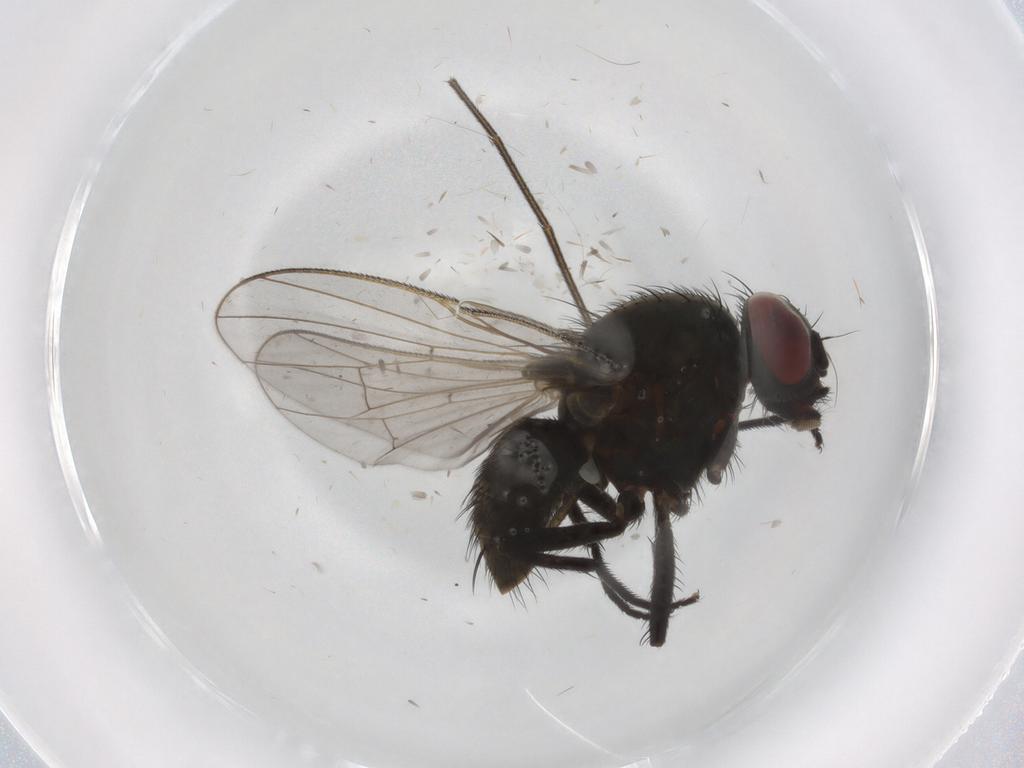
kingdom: Animalia
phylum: Arthropoda
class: Insecta
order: Diptera
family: Muscidae
